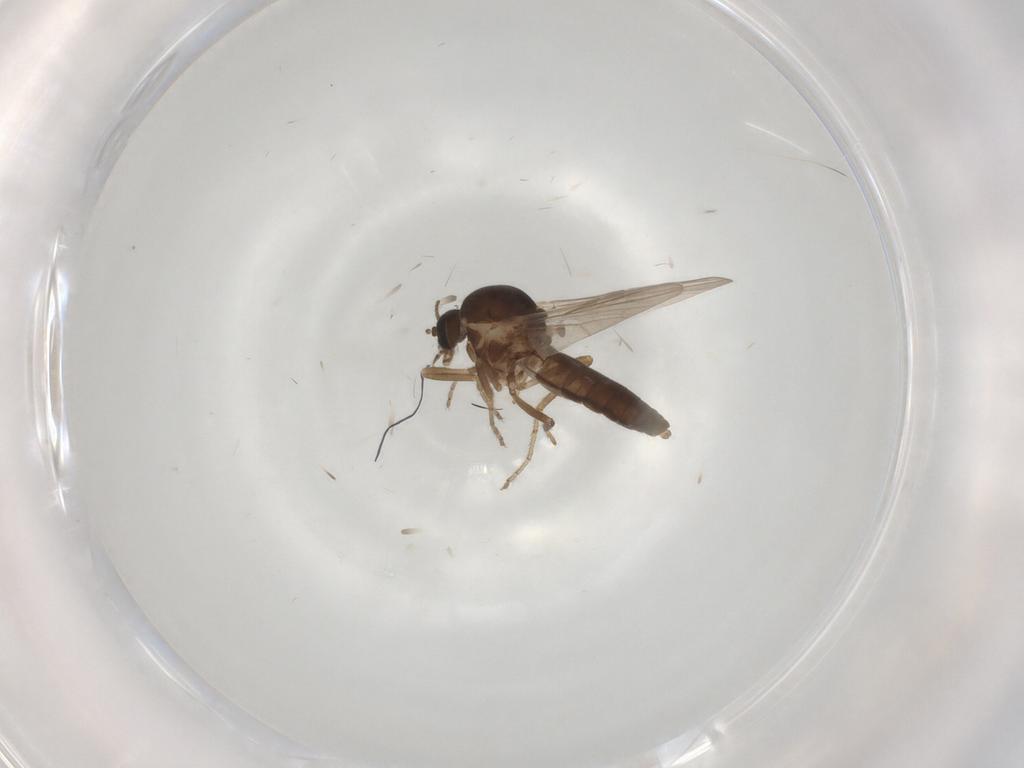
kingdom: Animalia
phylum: Arthropoda
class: Insecta
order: Diptera
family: Ceratopogonidae
